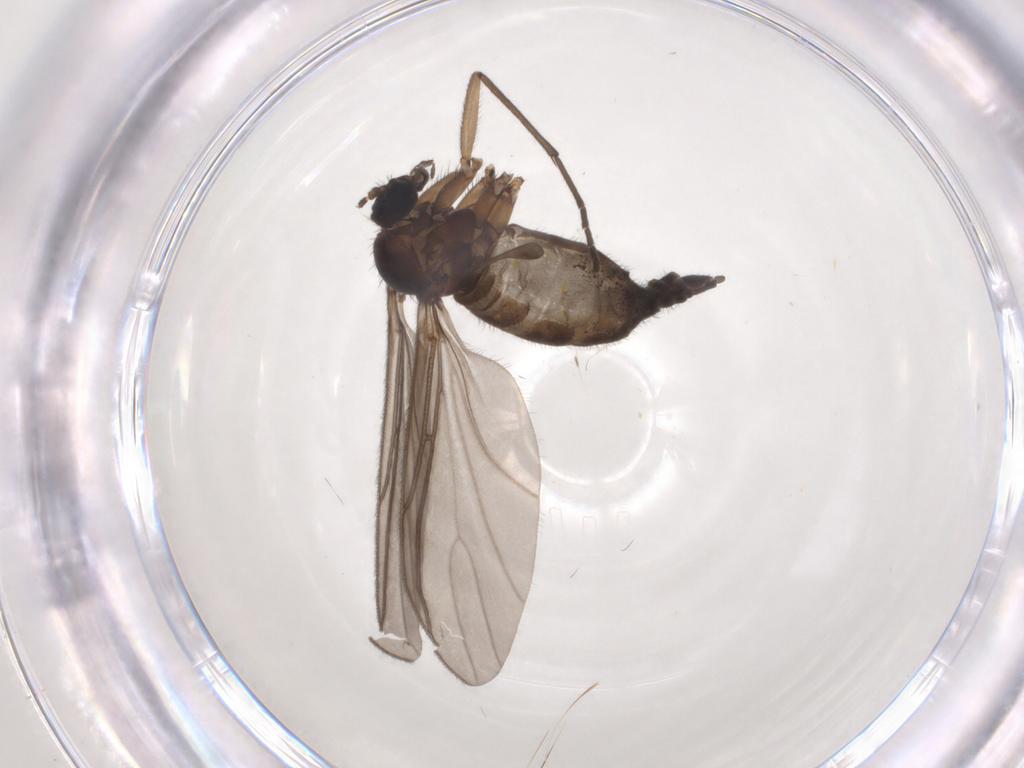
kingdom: Animalia
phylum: Arthropoda
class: Insecta
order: Diptera
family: Sciaridae
